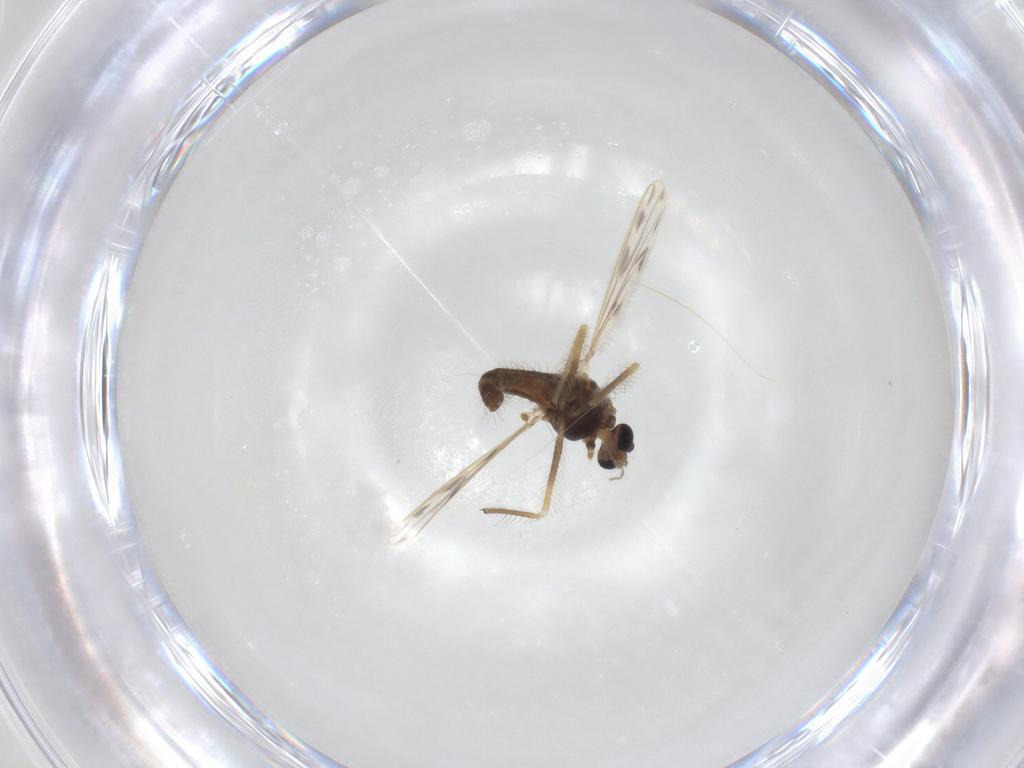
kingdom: Animalia
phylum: Arthropoda
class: Insecta
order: Diptera
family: Chironomidae
